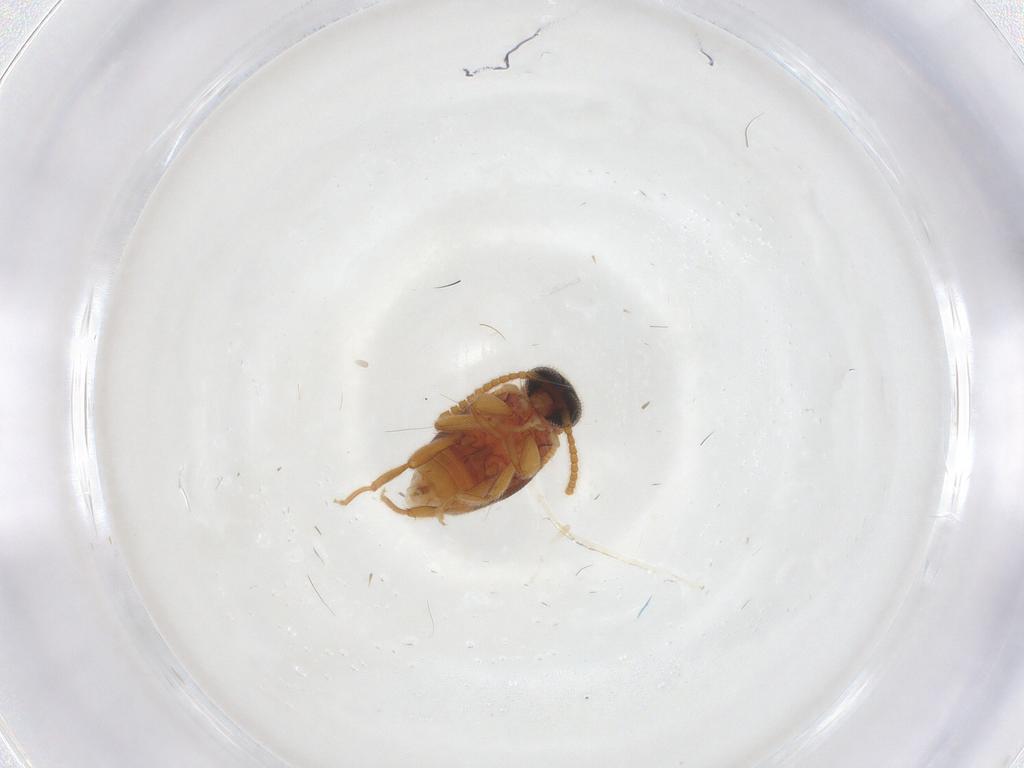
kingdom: Animalia
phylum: Arthropoda
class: Insecta
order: Coleoptera
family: Aderidae
